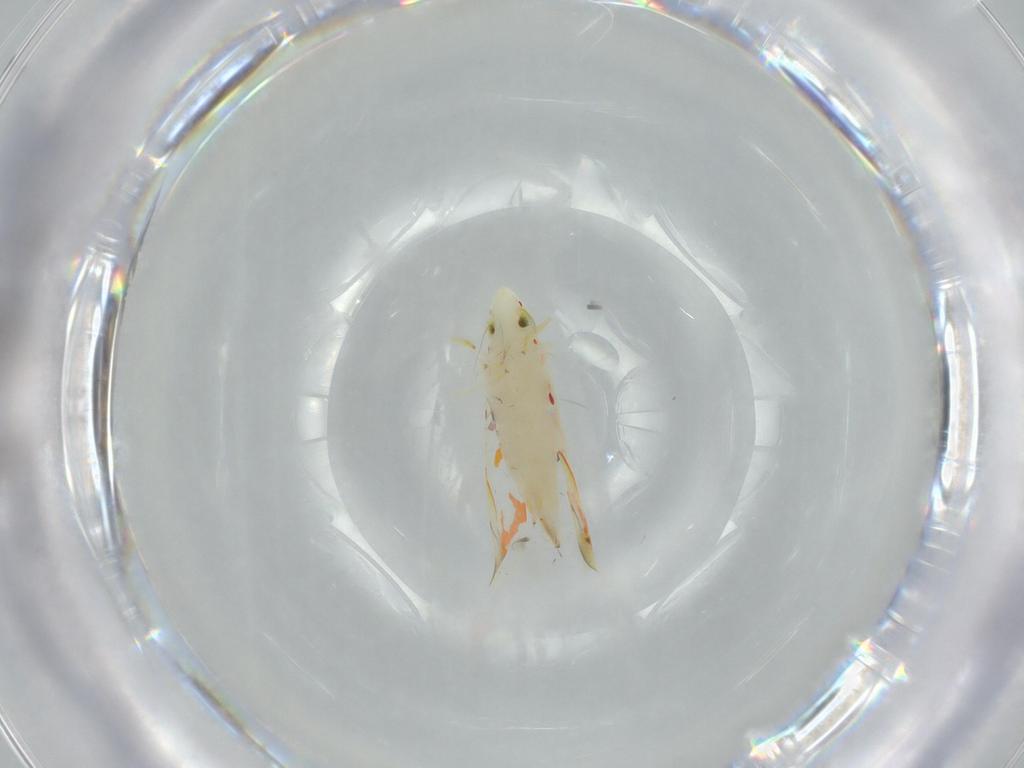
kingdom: Animalia
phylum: Arthropoda
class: Insecta
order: Hemiptera
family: Cicadellidae
